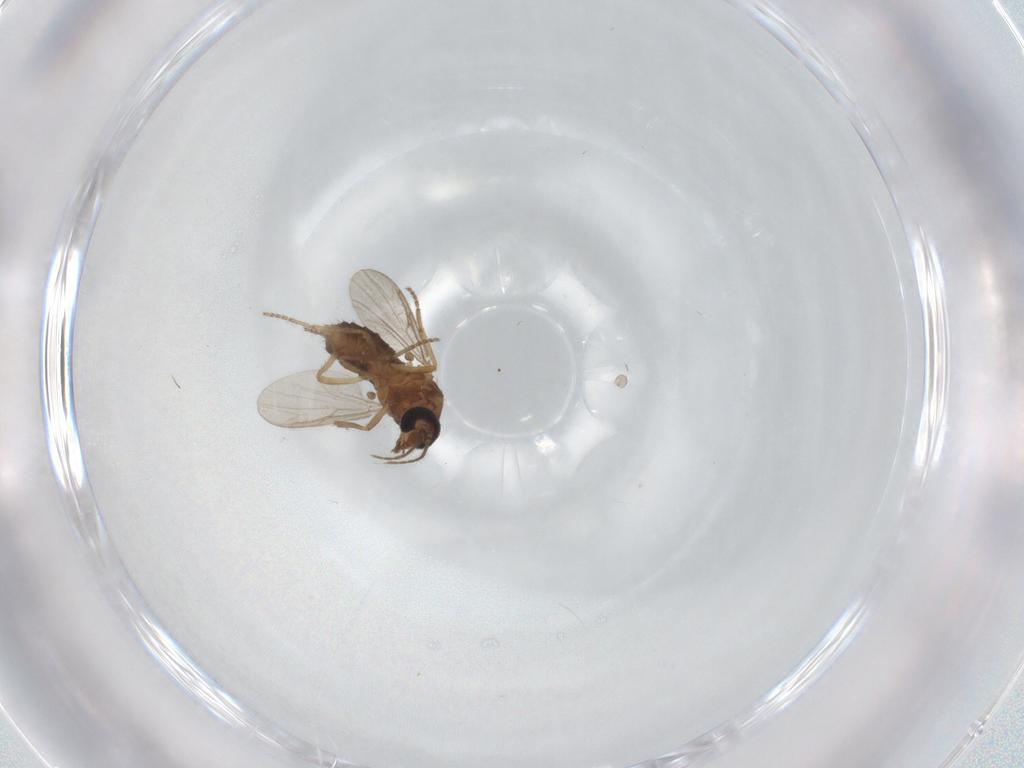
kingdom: Animalia
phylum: Arthropoda
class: Insecta
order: Diptera
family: Ceratopogonidae
